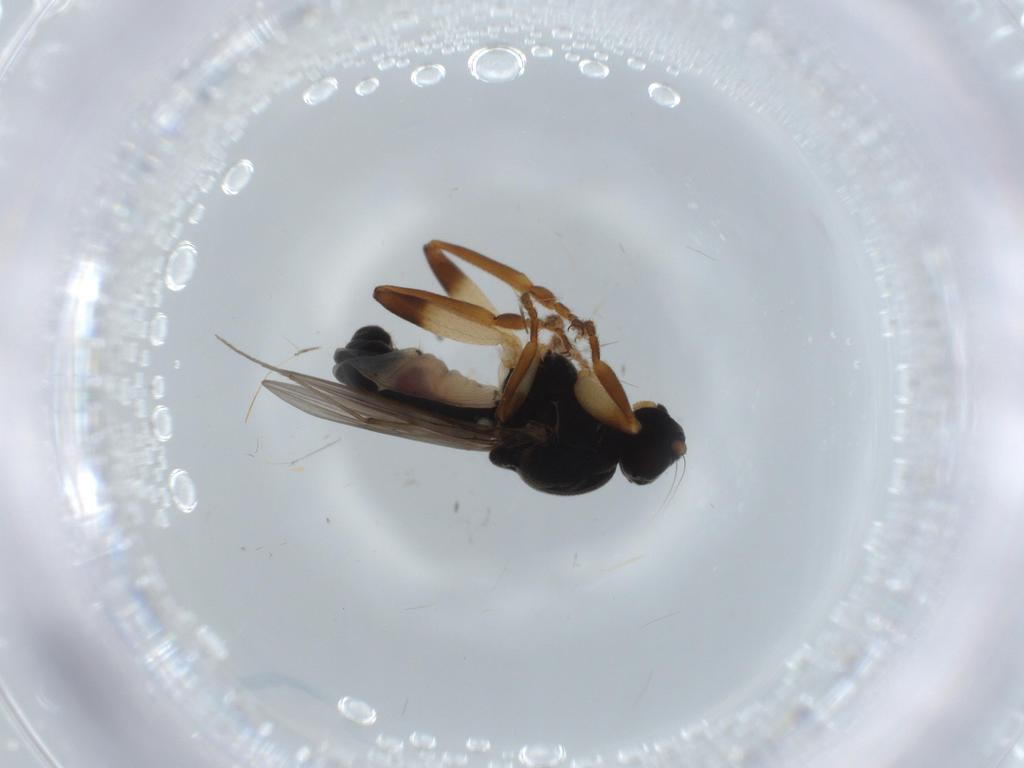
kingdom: Animalia
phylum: Arthropoda
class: Insecta
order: Diptera
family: Chironomidae
